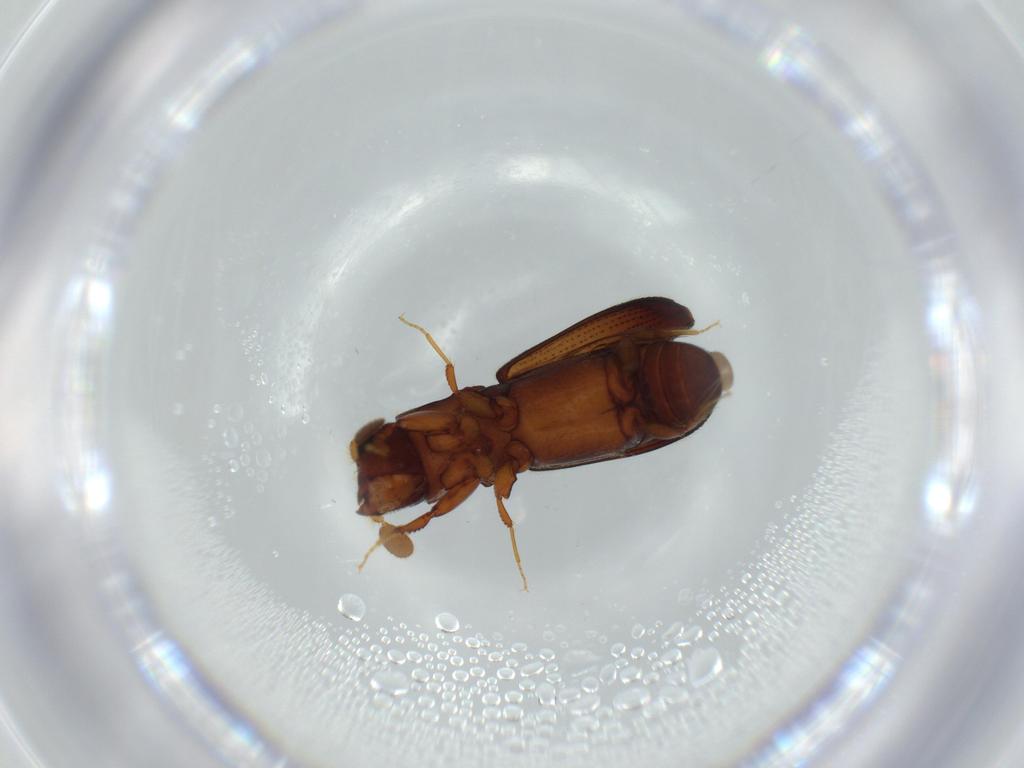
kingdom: Animalia
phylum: Arthropoda
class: Insecta
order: Coleoptera
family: Curculionidae
